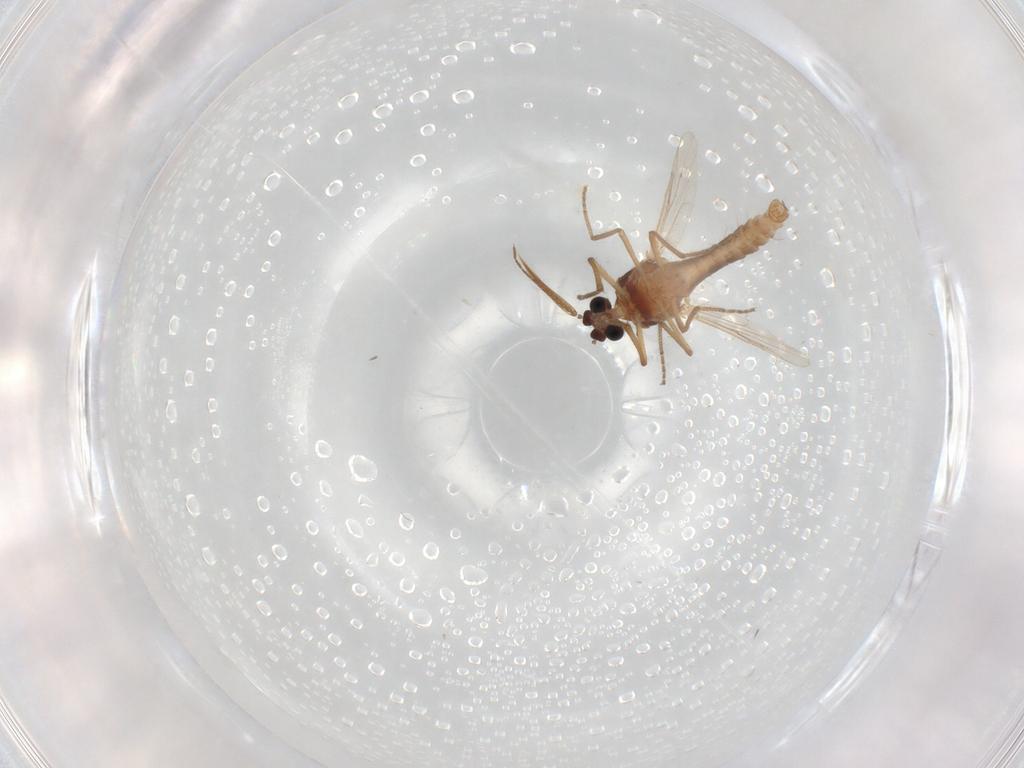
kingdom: Animalia
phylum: Arthropoda
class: Insecta
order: Diptera
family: Ceratopogonidae
